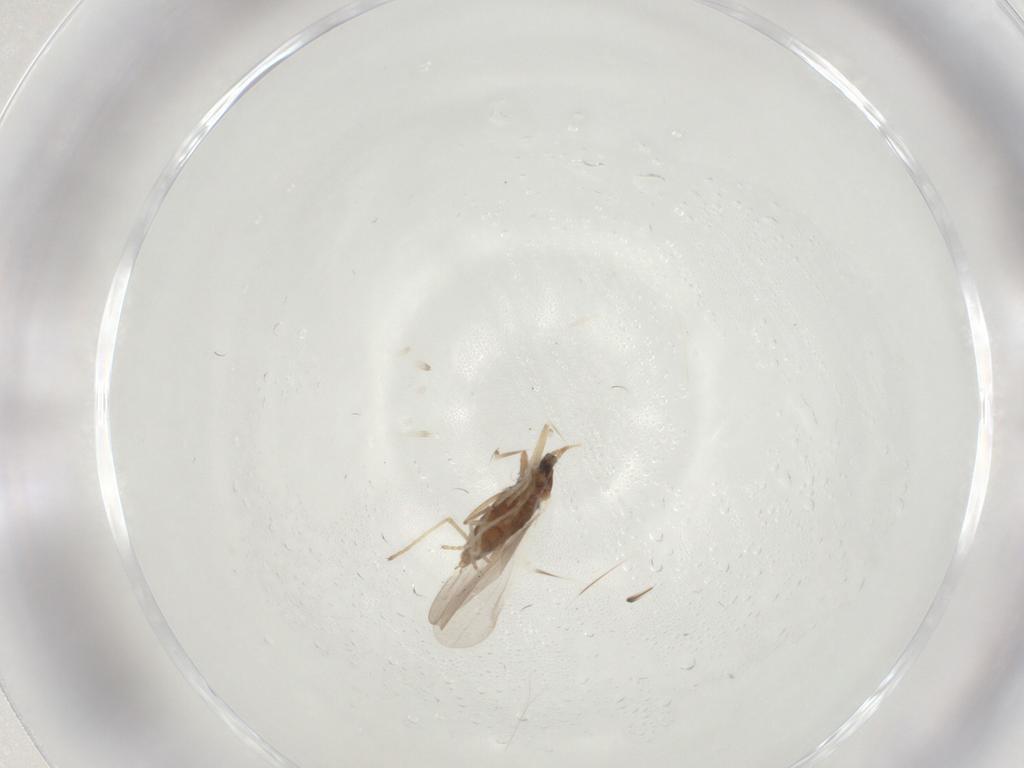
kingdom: Animalia
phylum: Arthropoda
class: Insecta
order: Diptera
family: Cecidomyiidae
